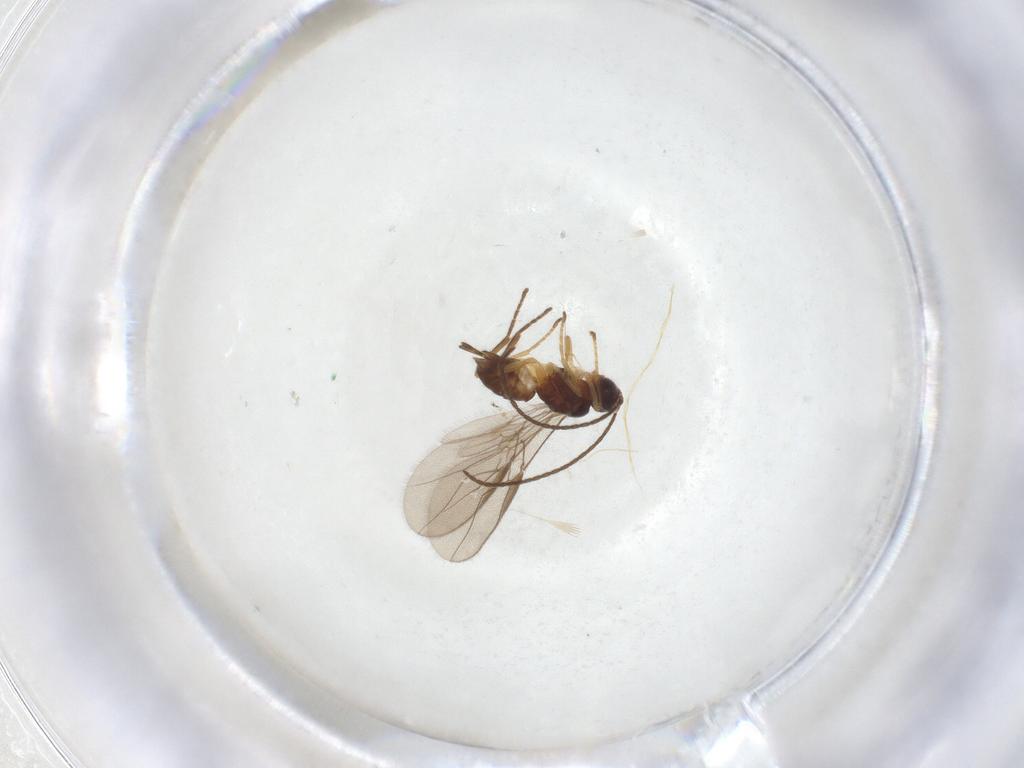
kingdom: Animalia
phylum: Arthropoda
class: Insecta
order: Hymenoptera
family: Braconidae
